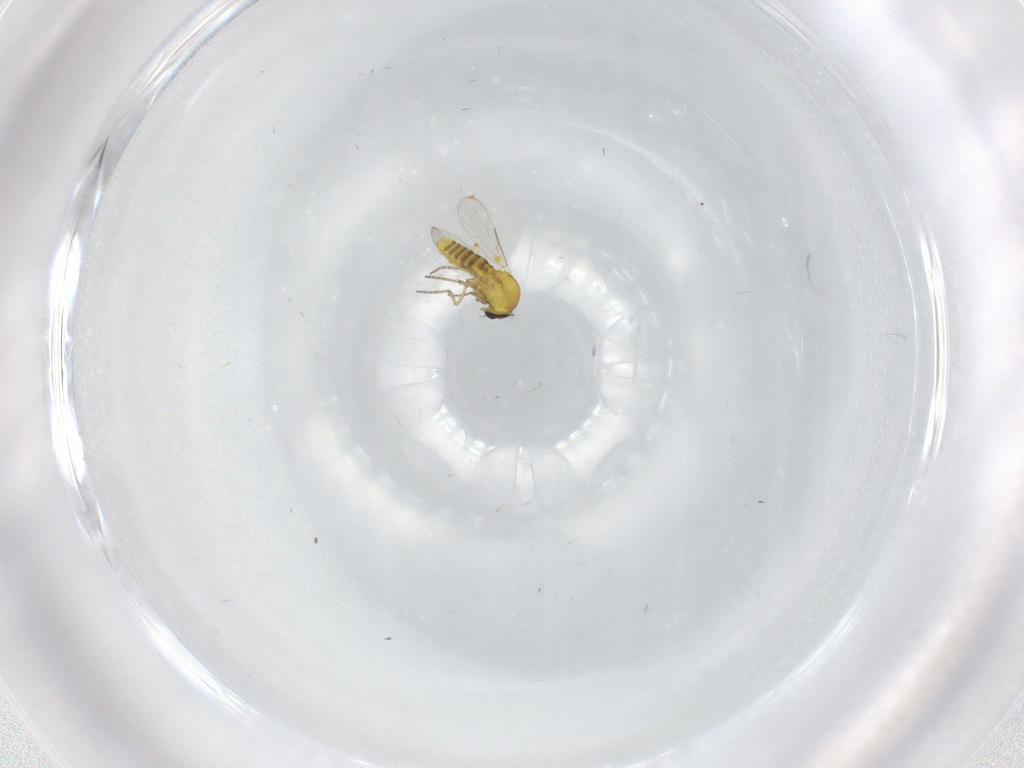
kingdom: Animalia
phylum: Arthropoda
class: Insecta
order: Diptera
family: Ceratopogonidae
